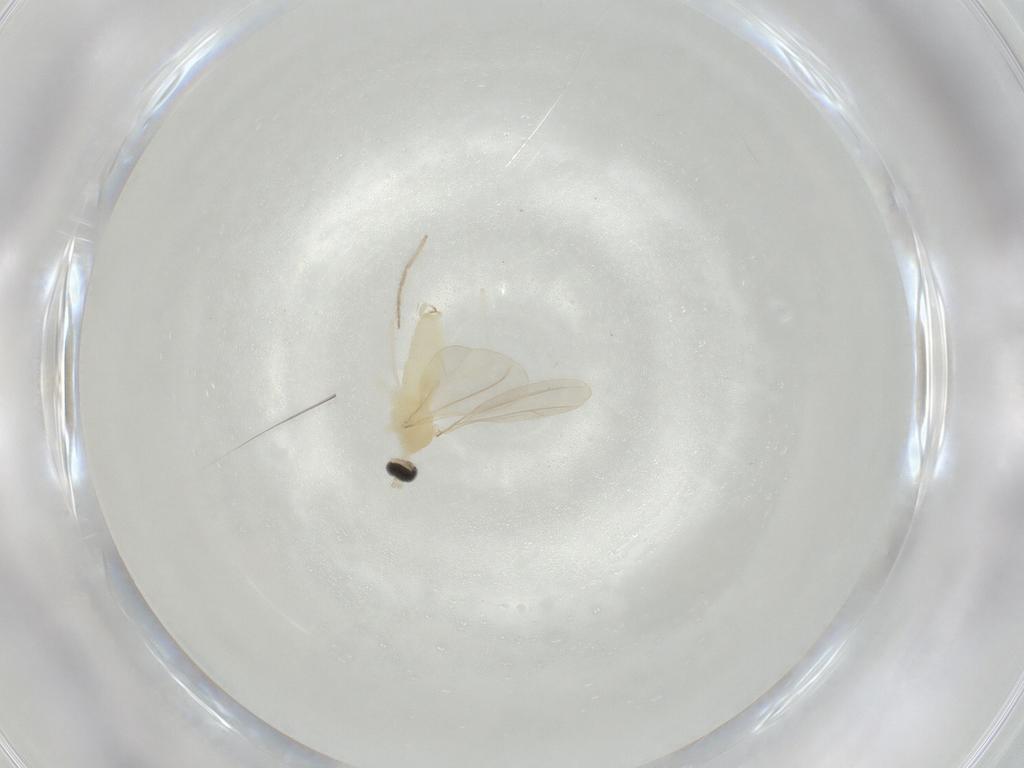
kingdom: Animalia
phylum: Arthropoda
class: Insecta
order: Diptera
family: Cecidomyiidae
